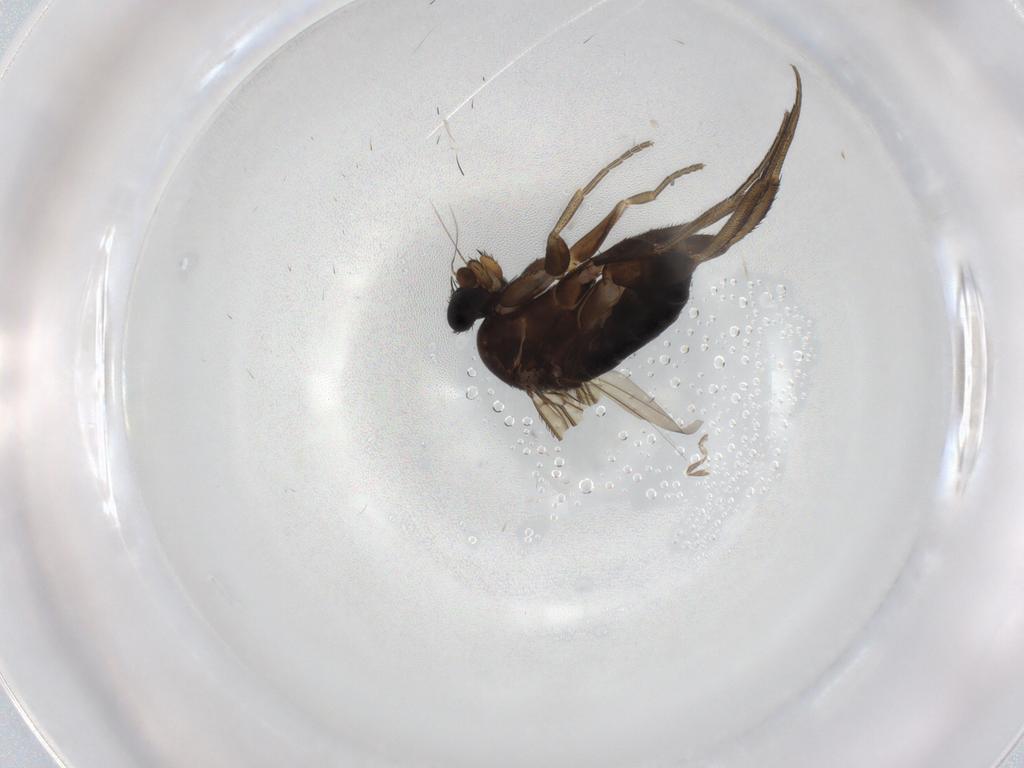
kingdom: Animalia
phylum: Arthropoda
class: Insecta
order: Diptera
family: Phoridae
